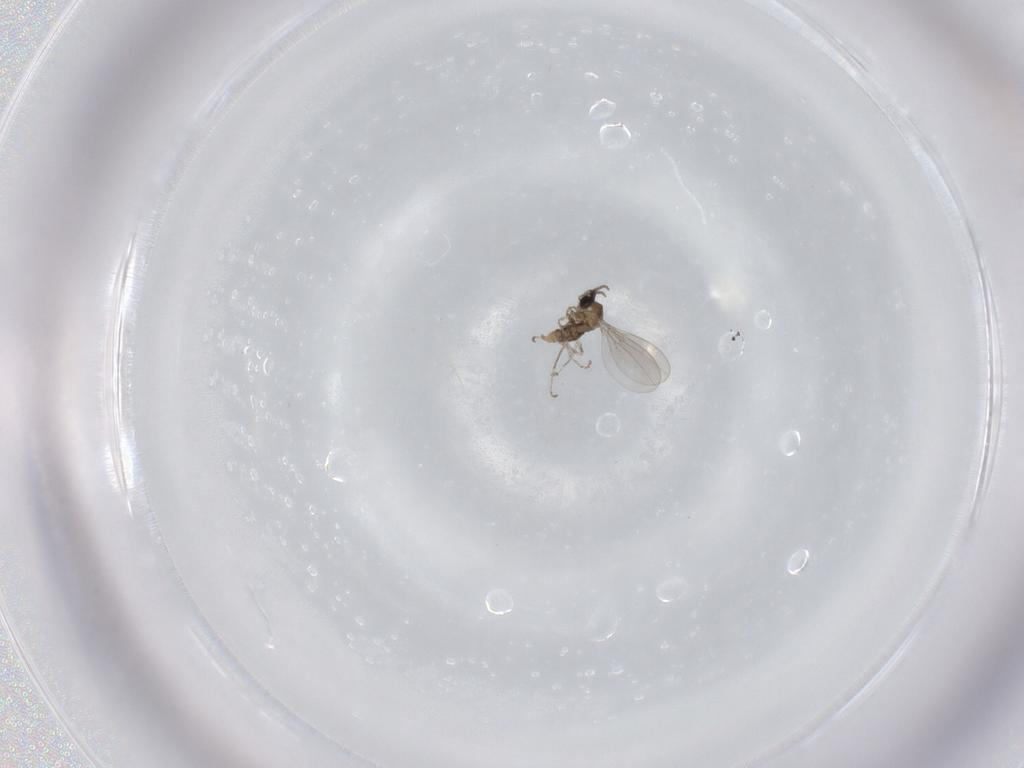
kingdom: Animalia
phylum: Arthropoda
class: Insecta
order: Diptera
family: Cecidomyiidae
